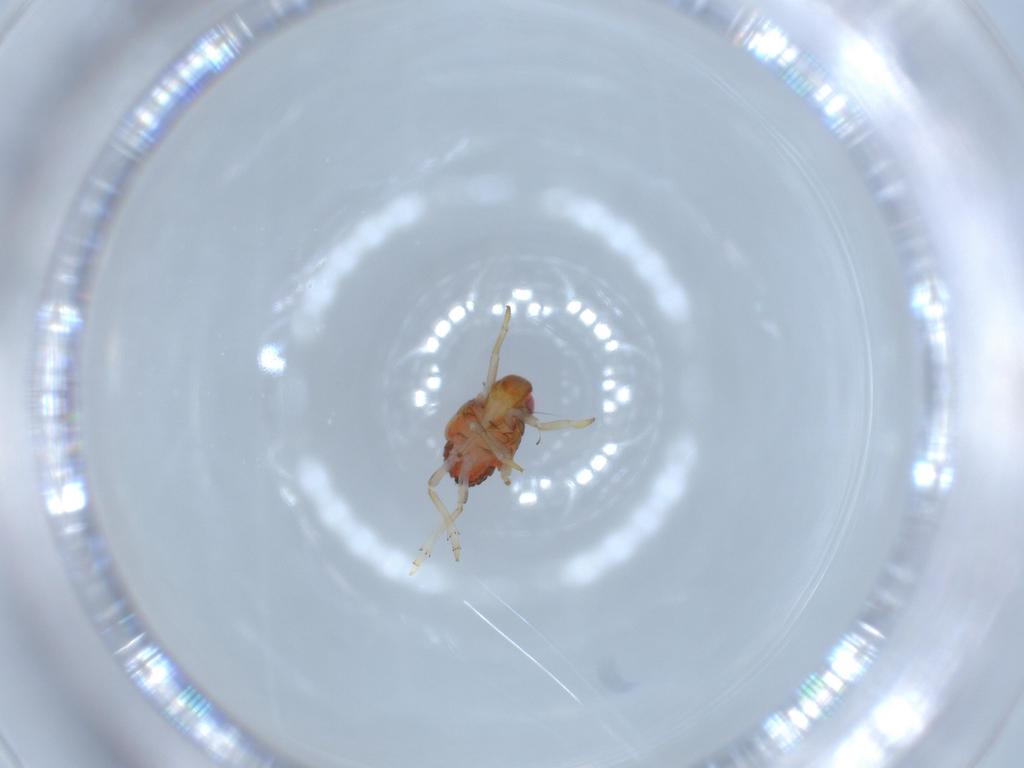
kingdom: Animalia
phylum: Arthropoda
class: Insecta
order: Hemiptera
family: Issidae
